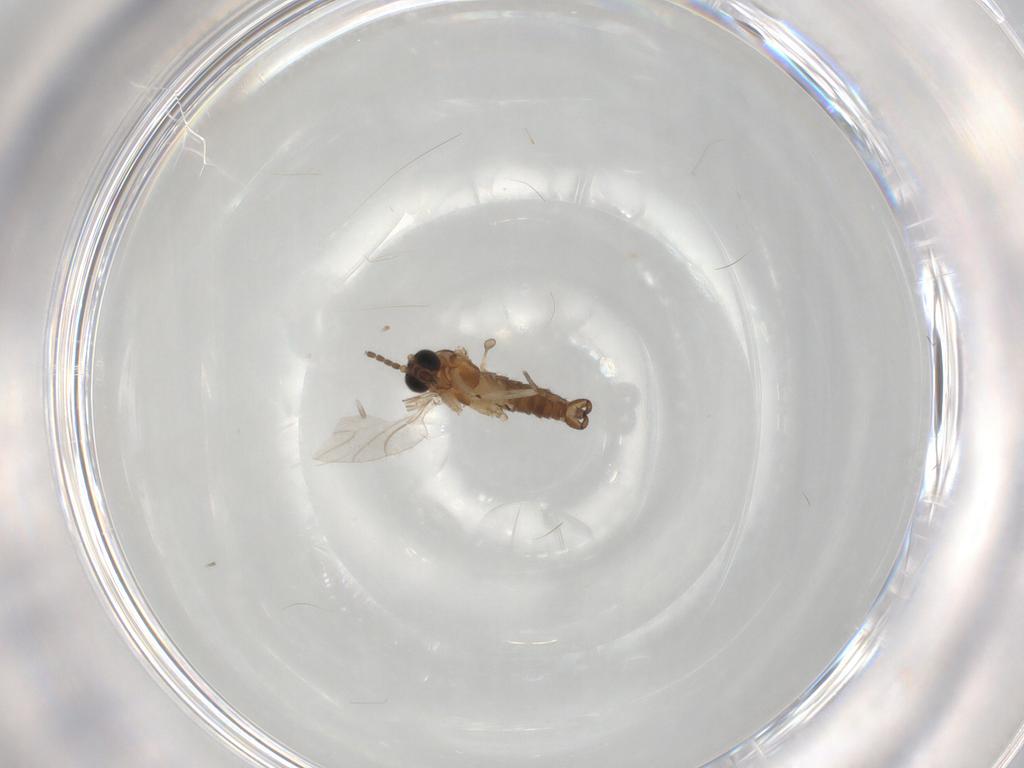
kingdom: Animalia
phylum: Arthropoda
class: Insecta
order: Diptera
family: Sciaridae
